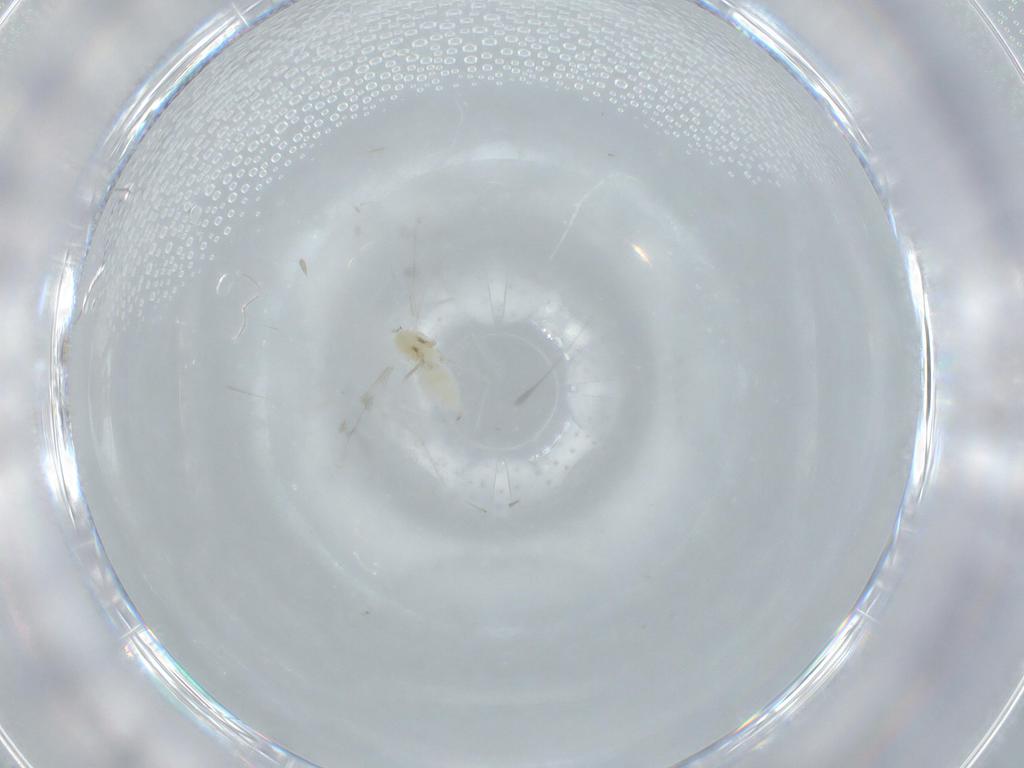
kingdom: Animalia
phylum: Arthropoda
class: Insecta
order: Diptera
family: Cecidomyiidae
